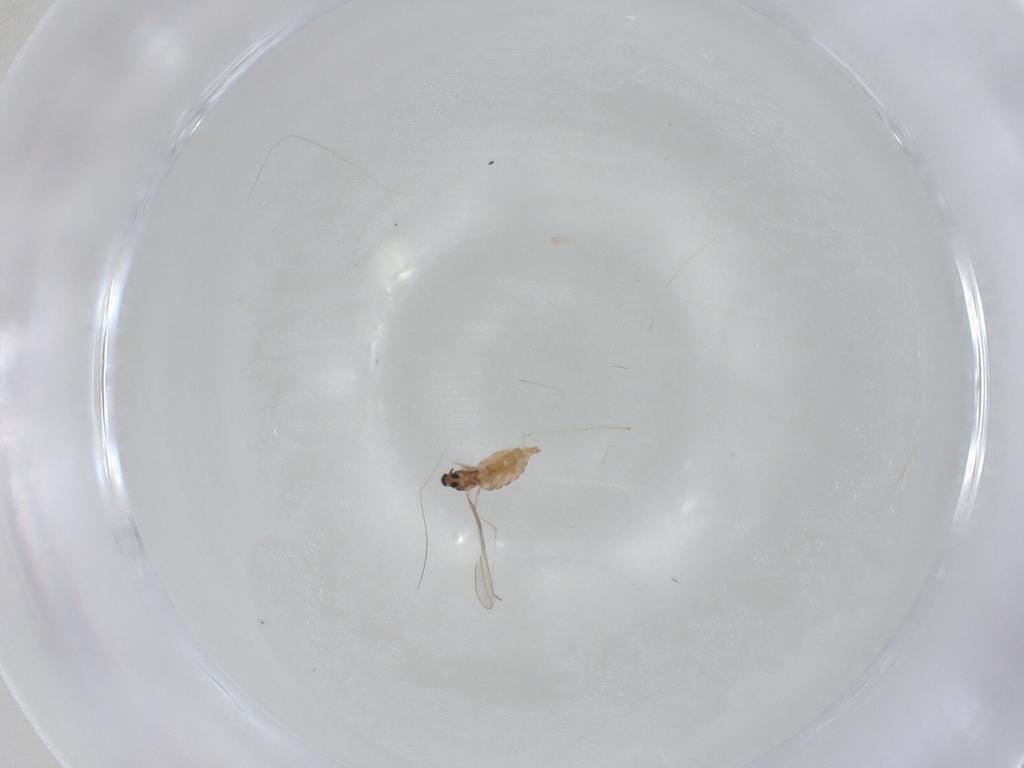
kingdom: Animalia
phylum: Arthropoda
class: Insecta
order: Diptera
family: Cecidomyiidae
